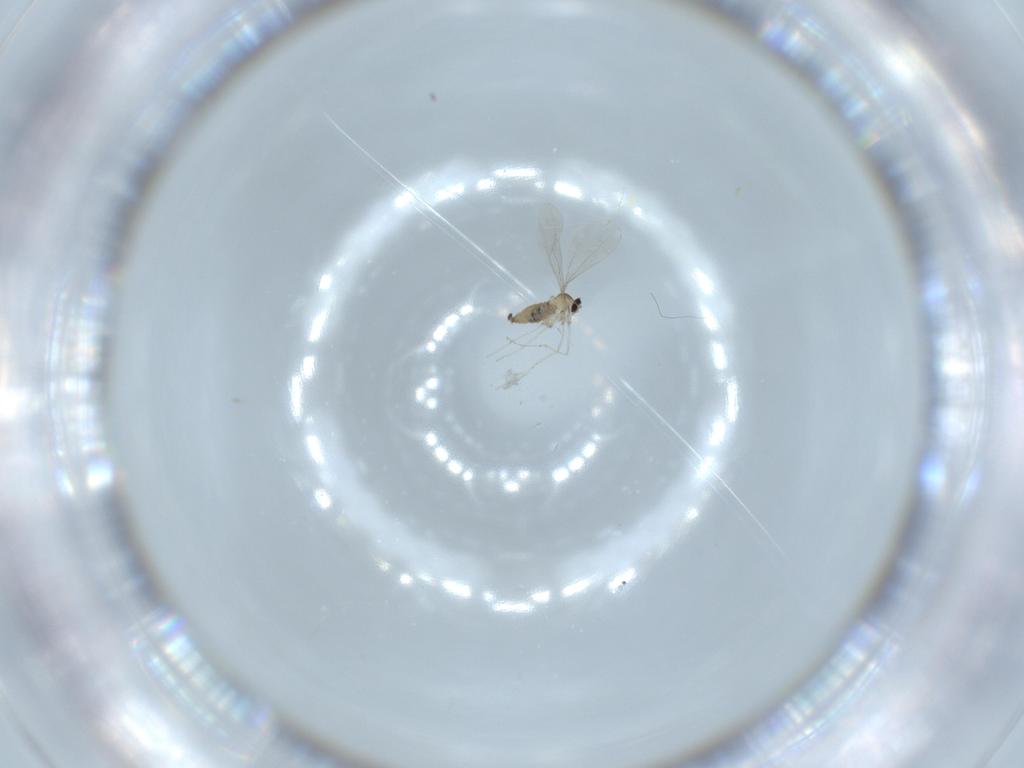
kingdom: Animalia
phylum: Arthropoda
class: Insecta
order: Diptera
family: Cecidomyiidae
